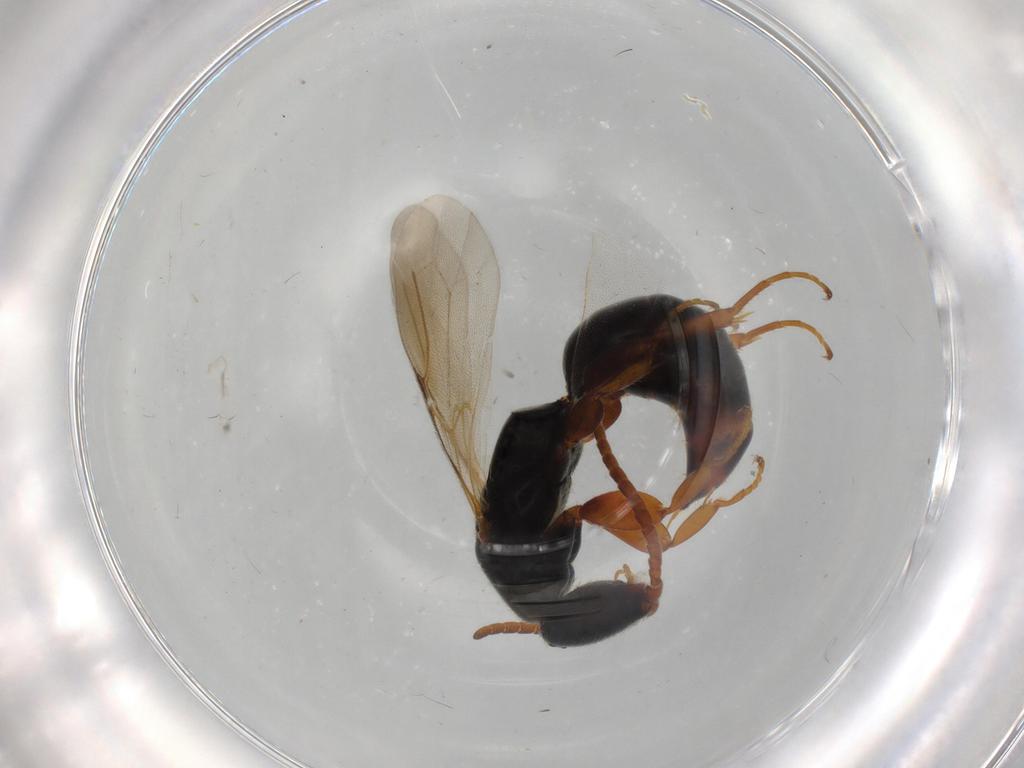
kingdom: Animalia
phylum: Arthropoda
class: Insecta
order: Hymenoptera
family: Bethylidae
